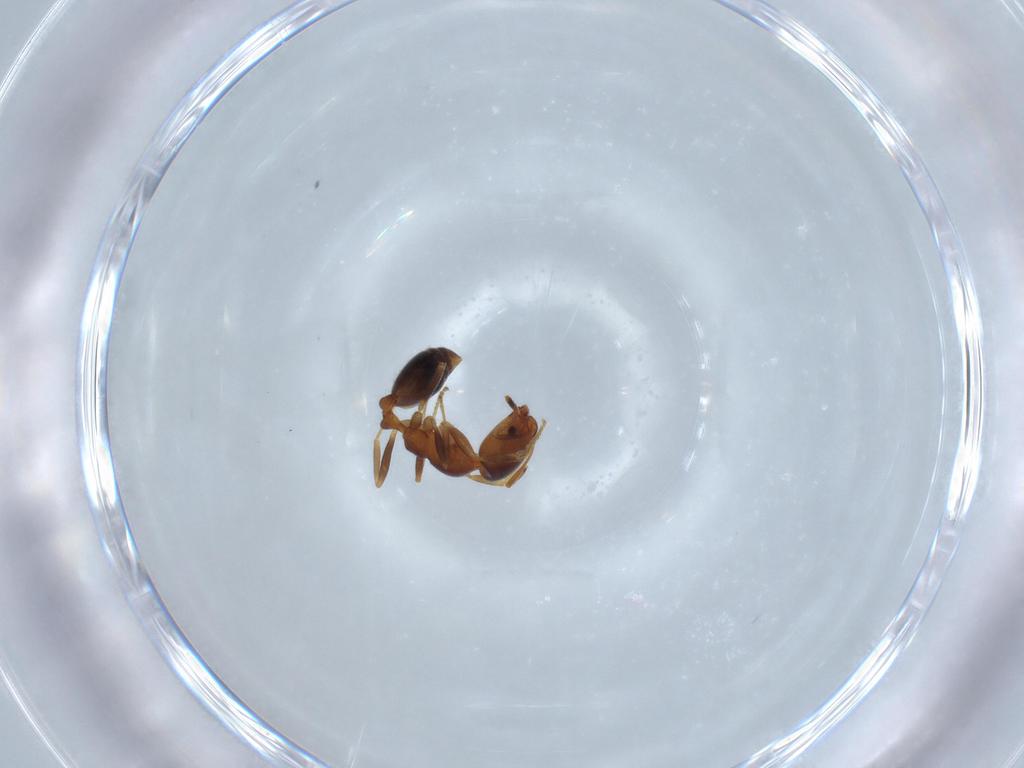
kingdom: Animalia
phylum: Arthropoda
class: Insecta
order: Hymenoptera
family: Formicidae
